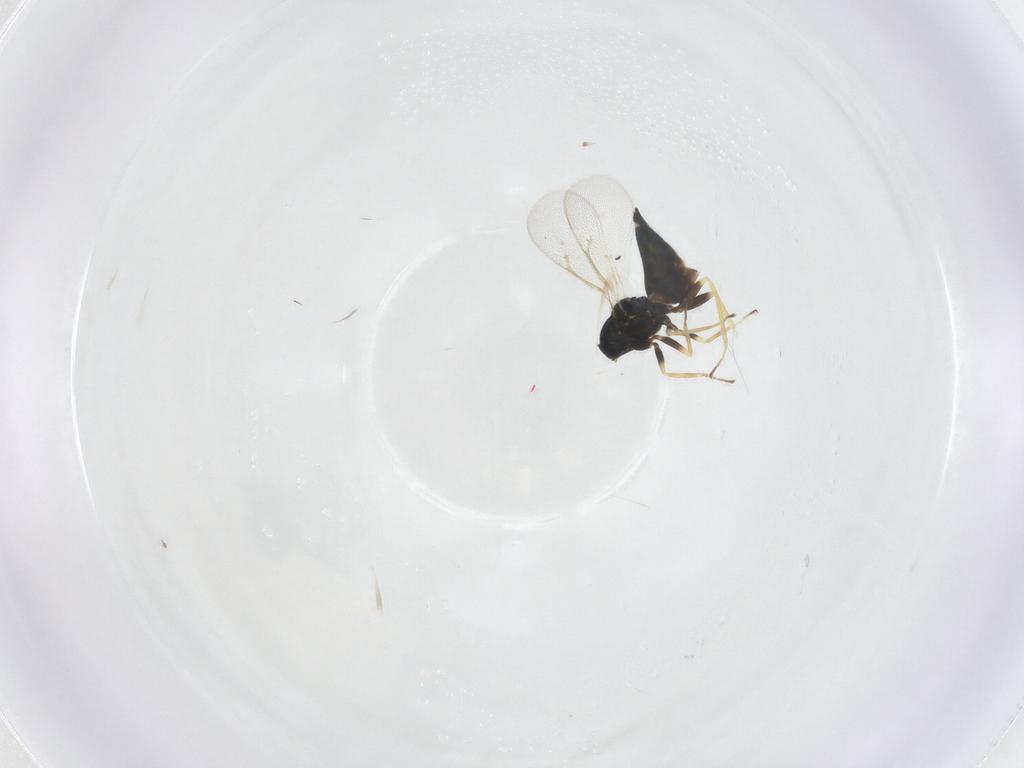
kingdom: Animalia
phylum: Arthropoda
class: Insecta
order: Hymenoptera
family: Eulophidae
